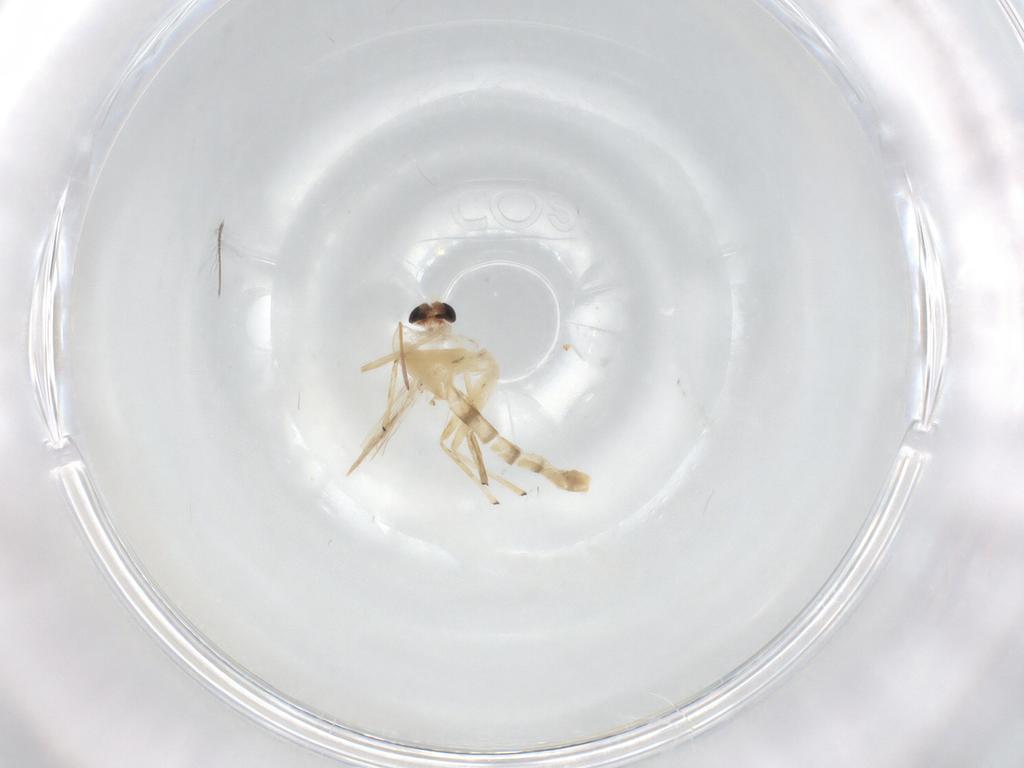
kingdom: Animalia
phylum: Arthropoda
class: Insecta
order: Diptera
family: Chironomidae
